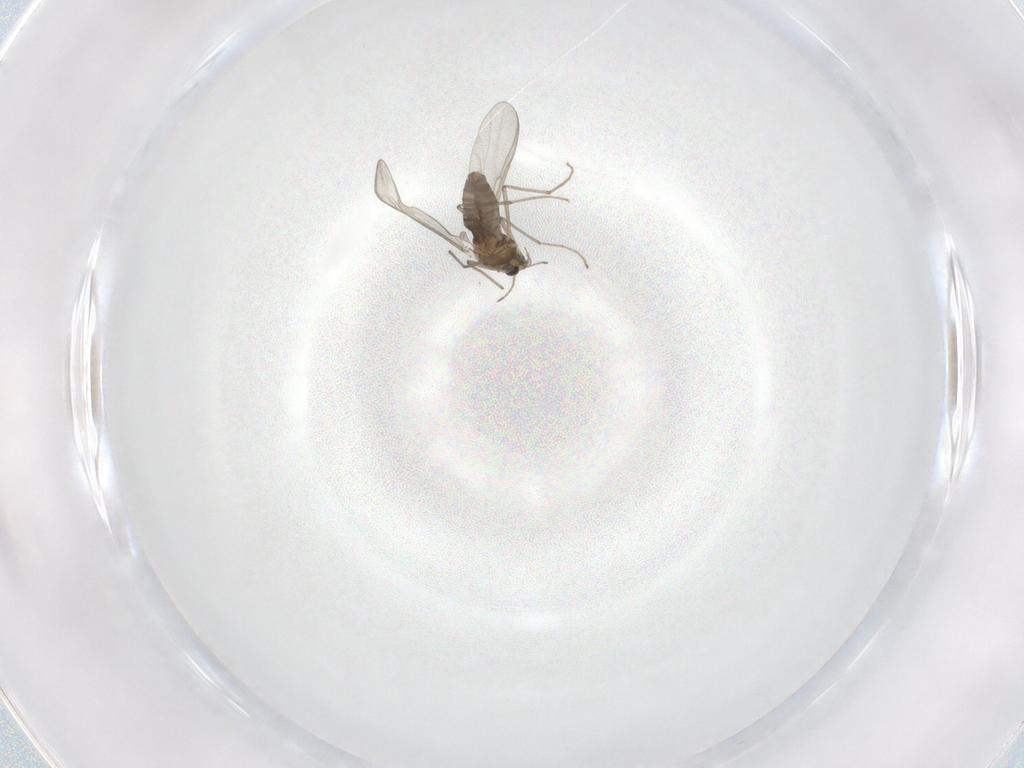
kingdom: Animalia
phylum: Arthropoda
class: Insecta
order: Diptera
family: Chironomidae
